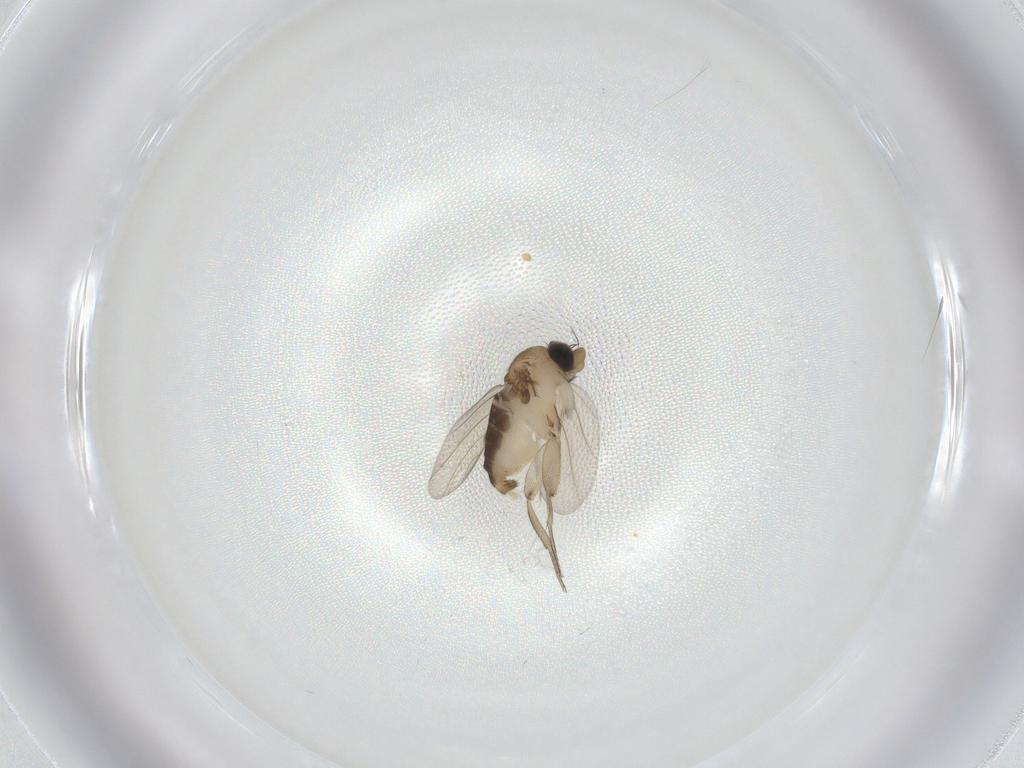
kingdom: Animalia
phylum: Arthropoda
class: Insecta
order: Diptera
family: Phoridae
